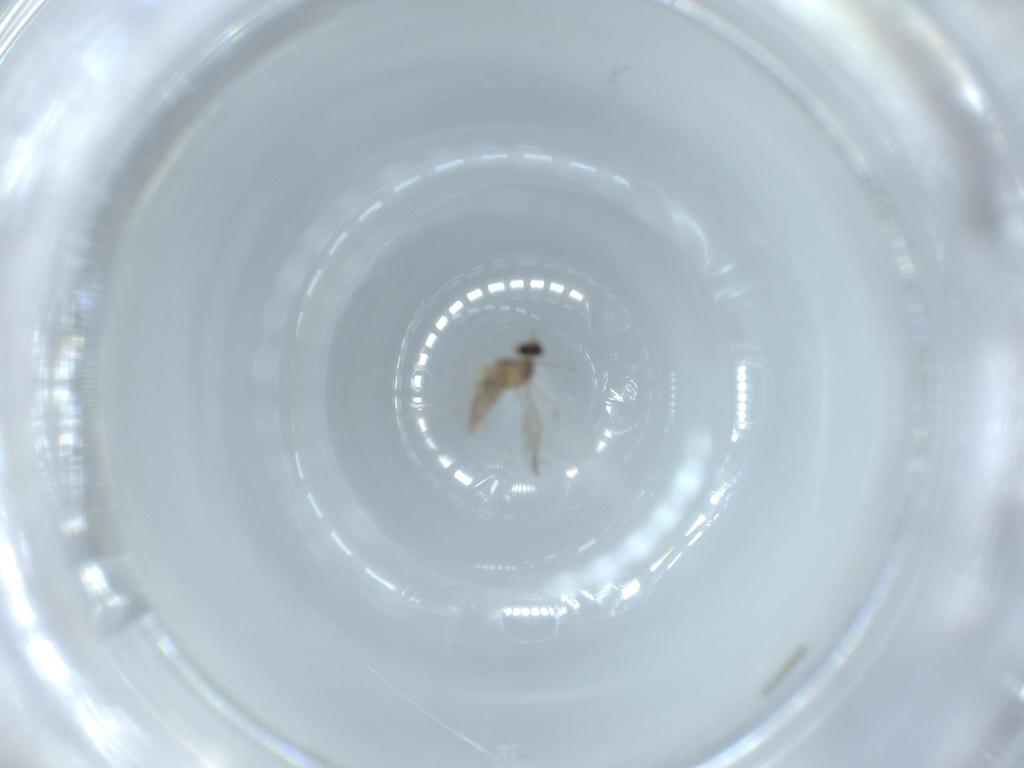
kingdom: Animalia
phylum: Arthropoda
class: Insecta
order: Diptera
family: Cecidomyiidae
